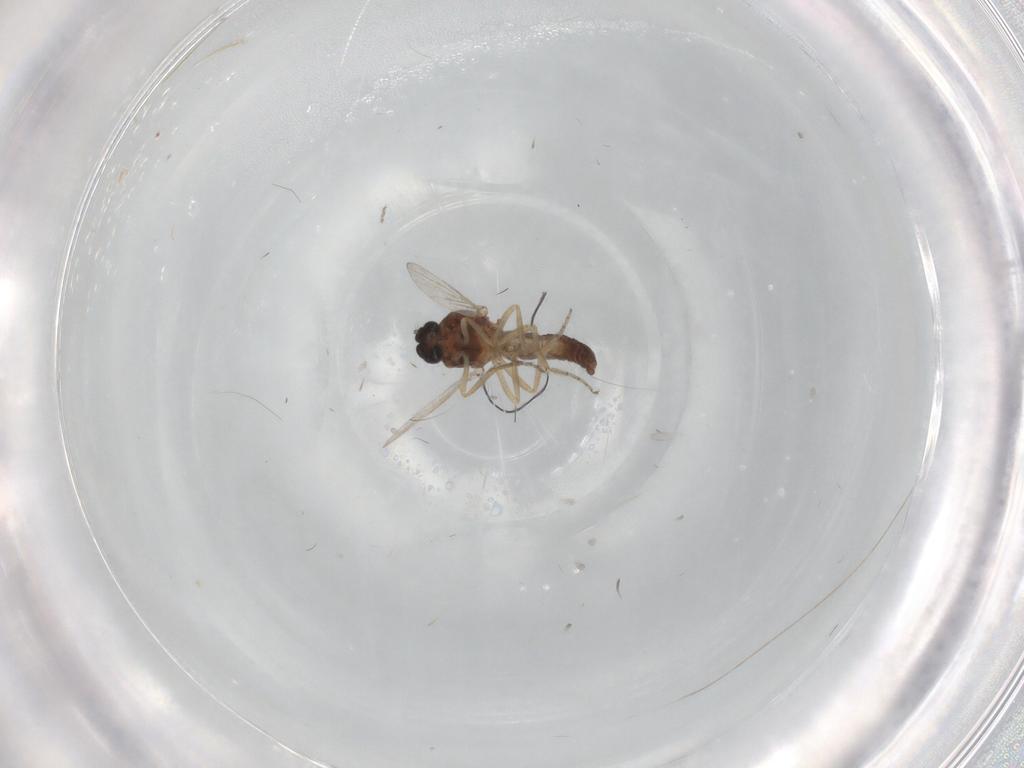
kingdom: Animalia
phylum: Arthropoda
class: Insecta
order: Diptera
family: Ceratopogonidae
